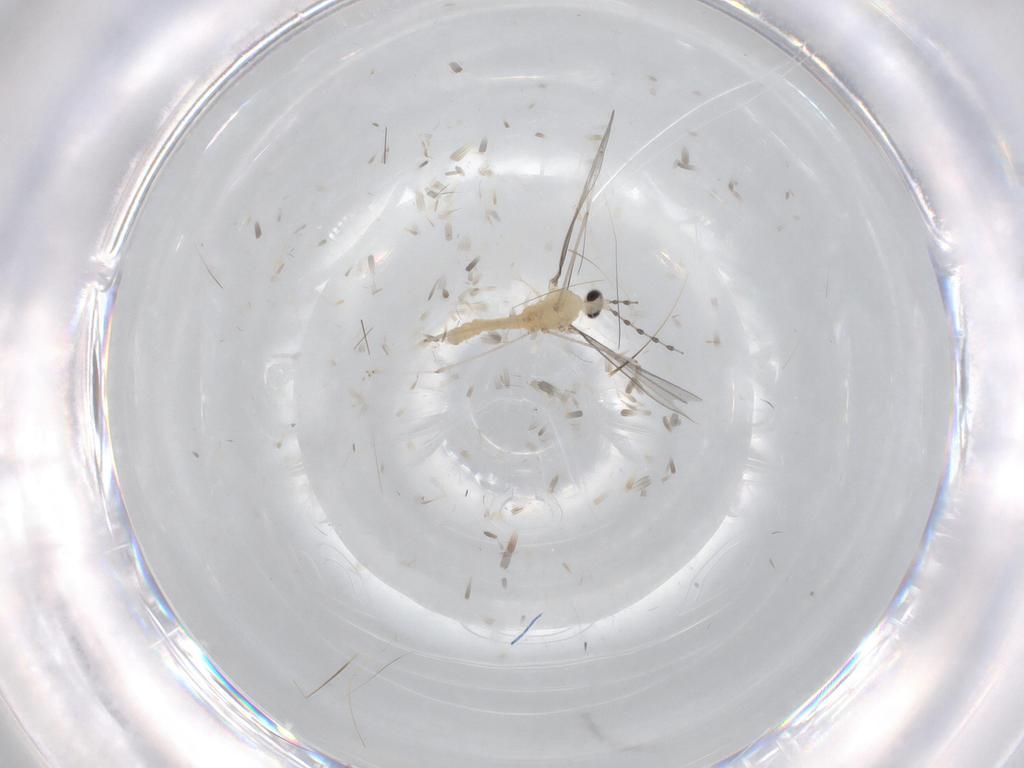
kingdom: Animalia
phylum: Arthropoda
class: Insecta
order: Diptera
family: Cecidomyiidae
